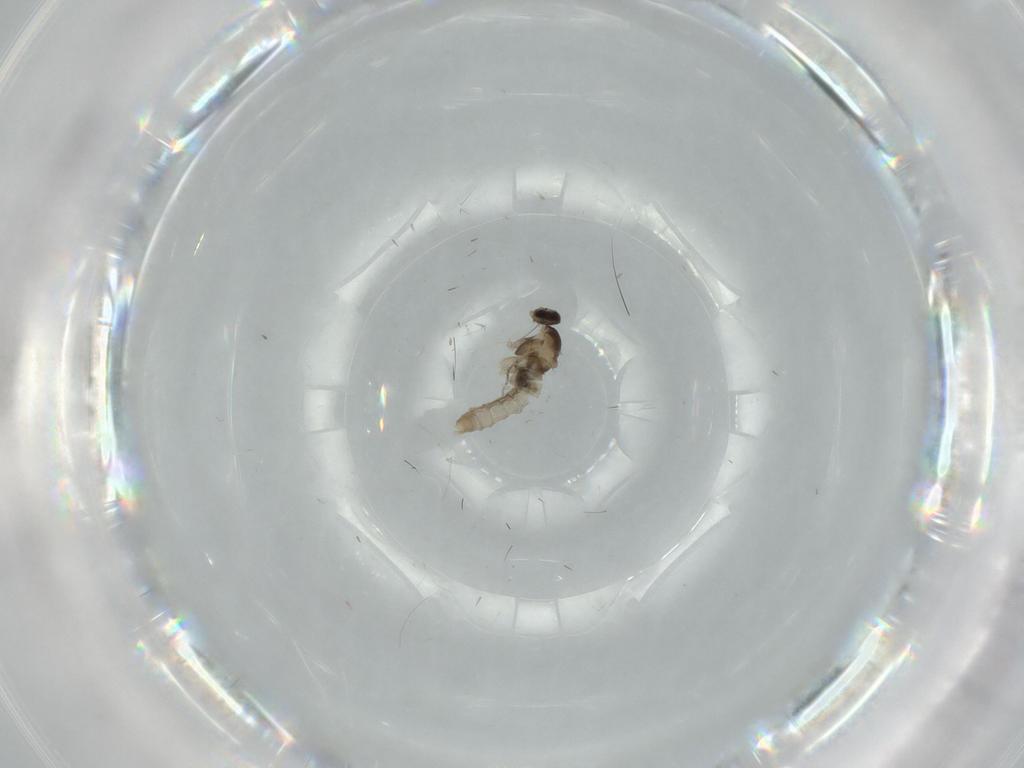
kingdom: Animalia
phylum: Arthropoda
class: Insecta
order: Diptera
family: Cecidomyiidae
